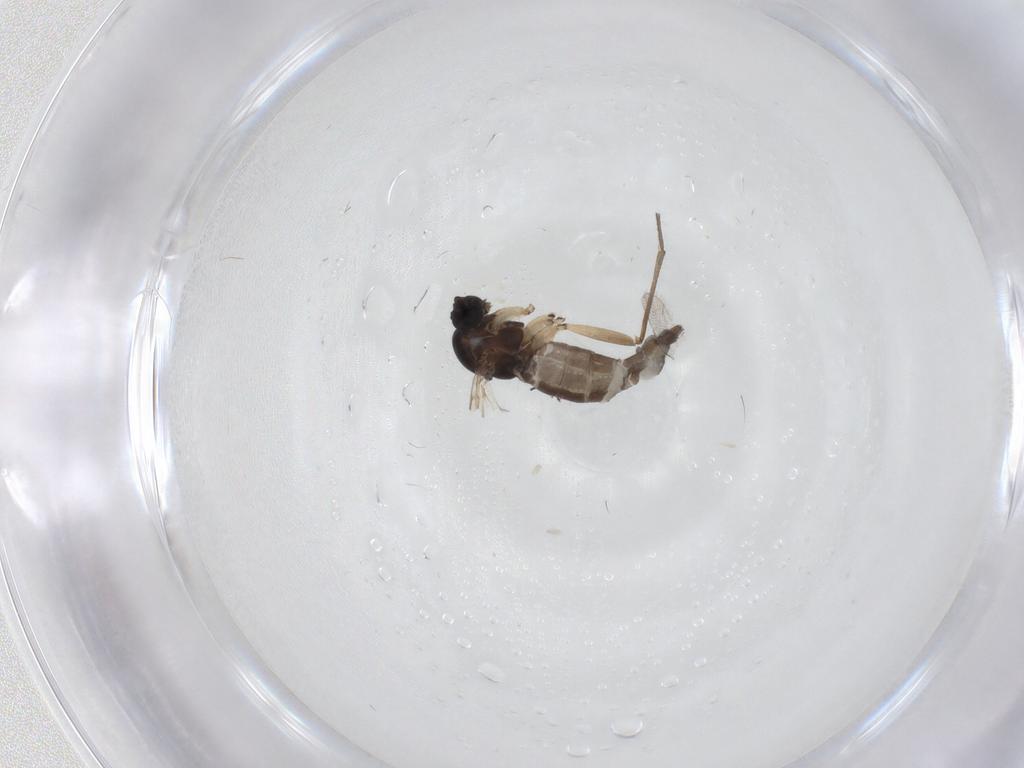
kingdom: Animalia
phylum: Arthropoda
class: Insecta
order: Diptera
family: Sciaridae
